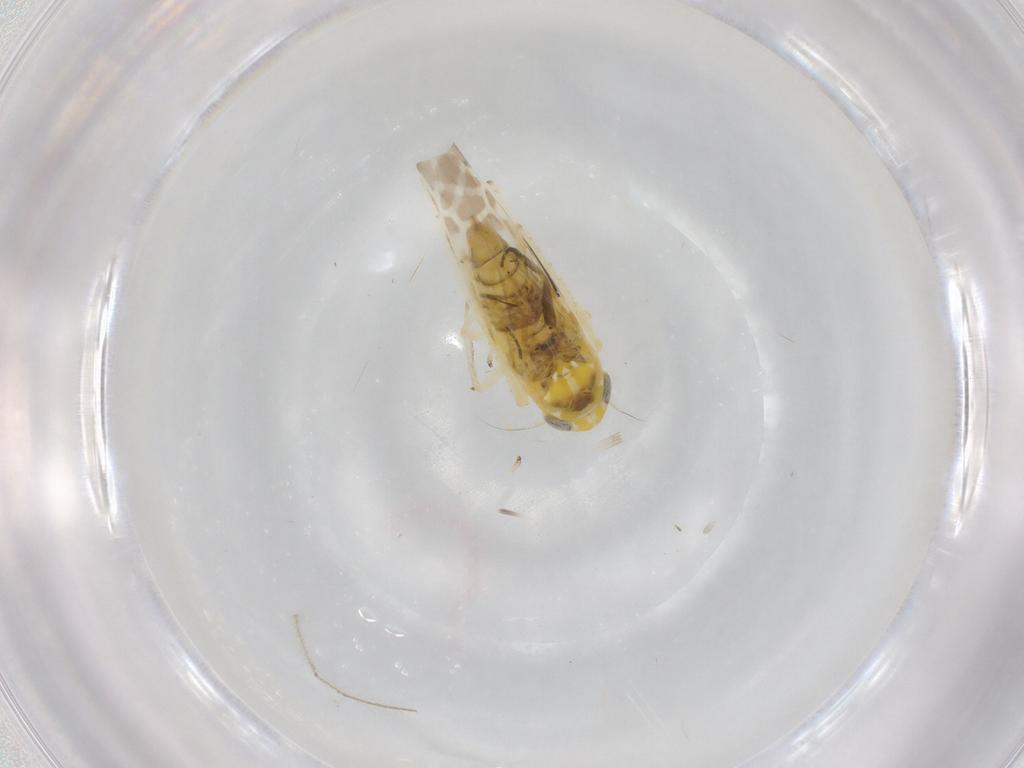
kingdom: Animalia
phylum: Arthropoda
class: Insecta
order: Hemiptera
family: Cicadellidae
